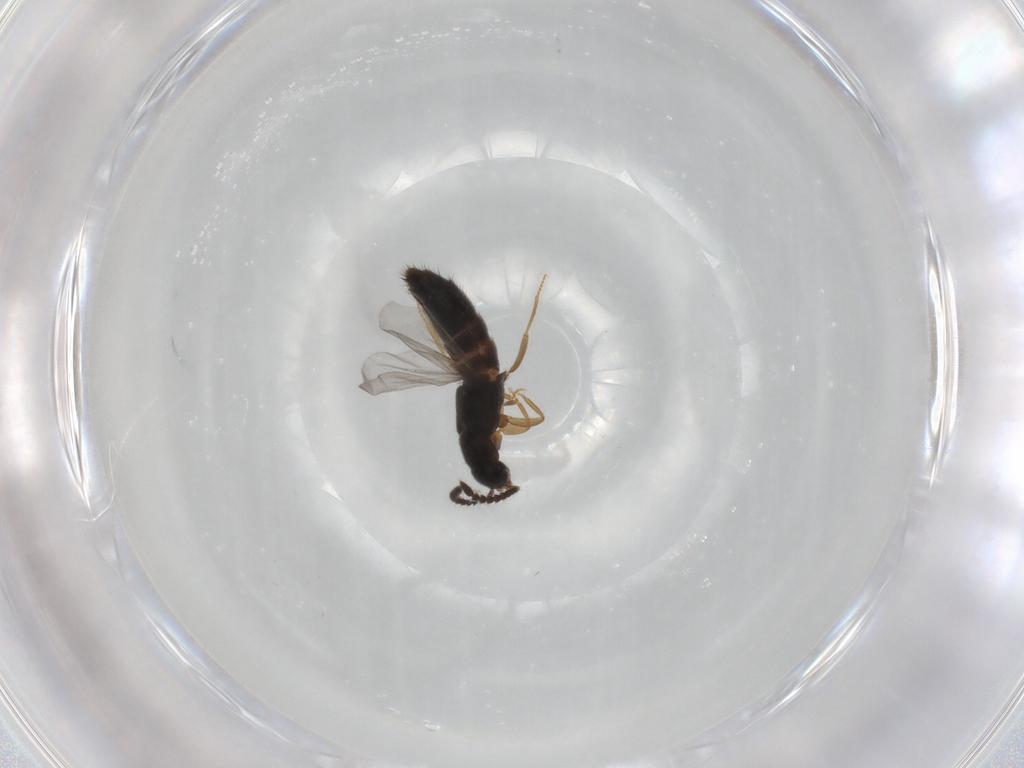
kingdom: Animalia
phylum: Arthropoda
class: Insecta
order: Coleoptera
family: Staphylinidae
